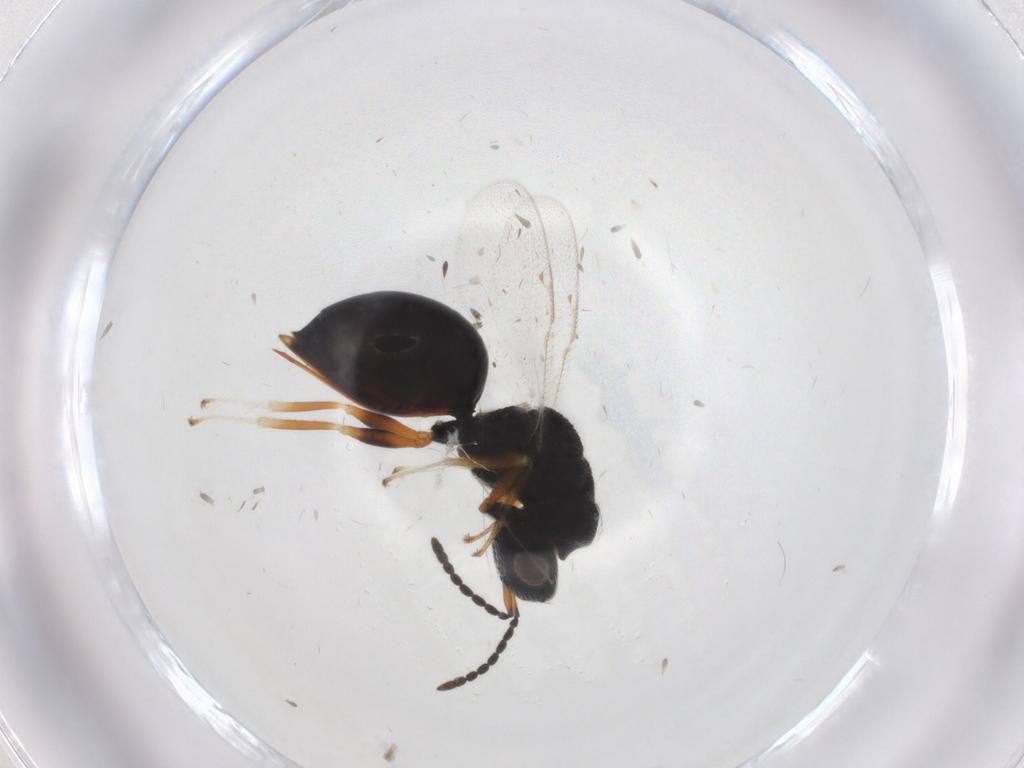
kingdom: Animalia
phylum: Arthropoda
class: Insecta
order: Hymenoptera
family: Eurytomidae
